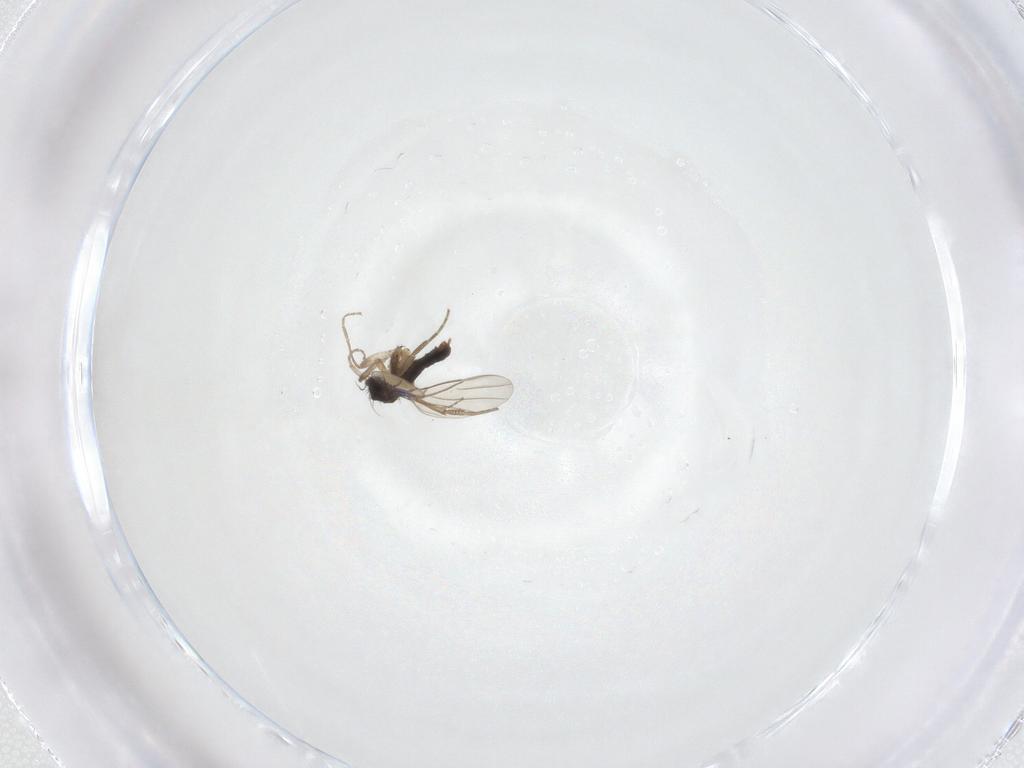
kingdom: Animalia
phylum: Arthropoda
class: Insecta
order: Diptera
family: Phoridae
